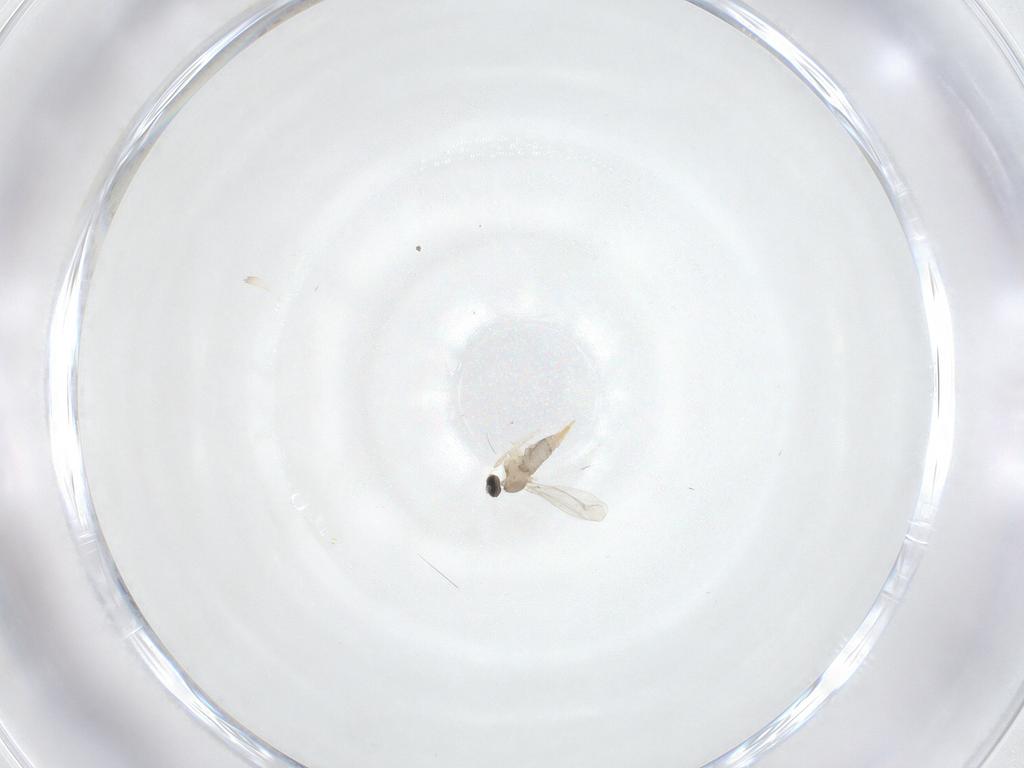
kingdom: Animalia
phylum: Arthropoda
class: Insecta
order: Diptera
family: Cecidomyiidae
